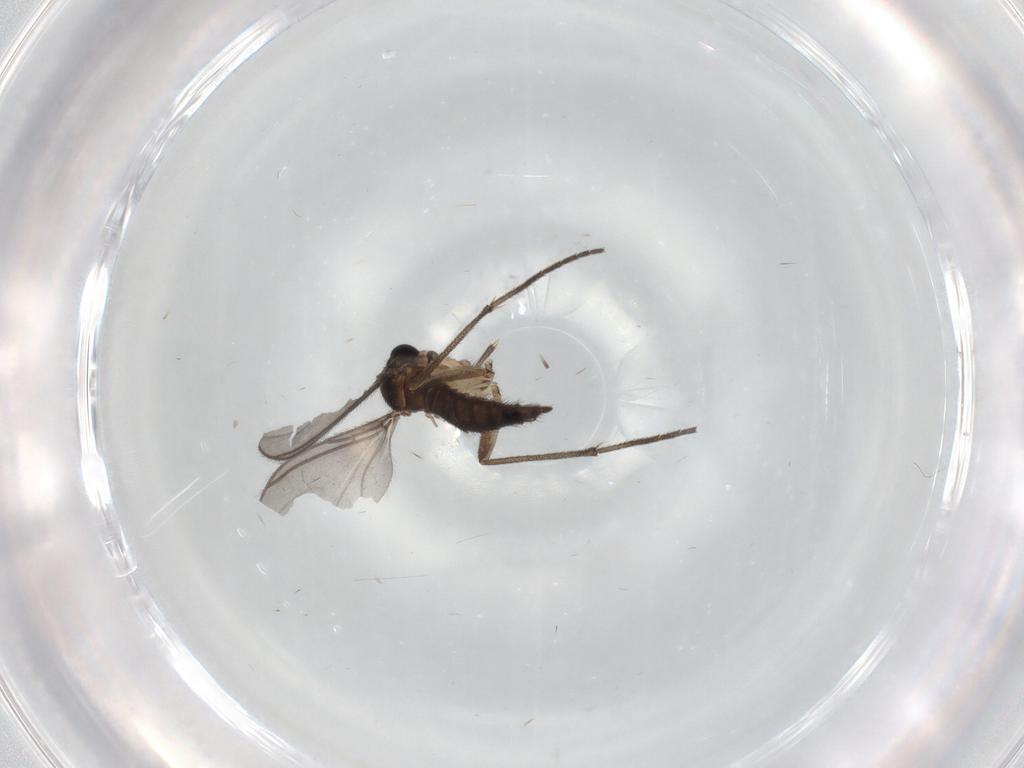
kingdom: Animalia
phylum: Arthropoda
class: Insecta
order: Diptera
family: Sciaridae
